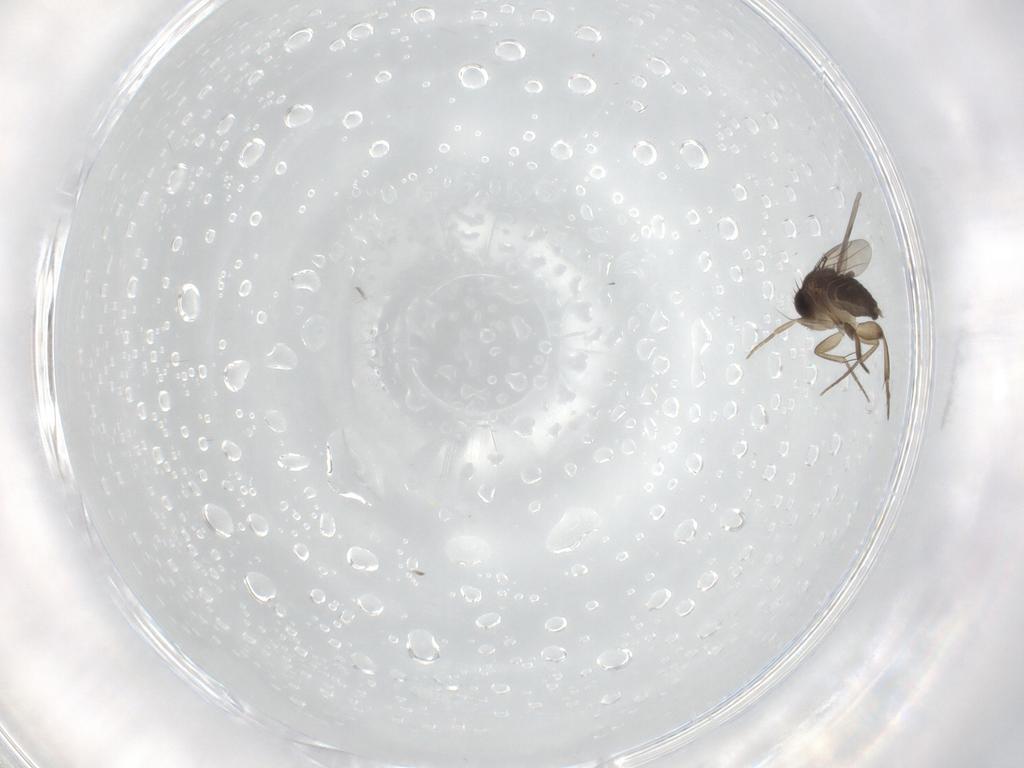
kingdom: Animalia
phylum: Arthropoda
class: Insecta
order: Diptera
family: Phoridae
